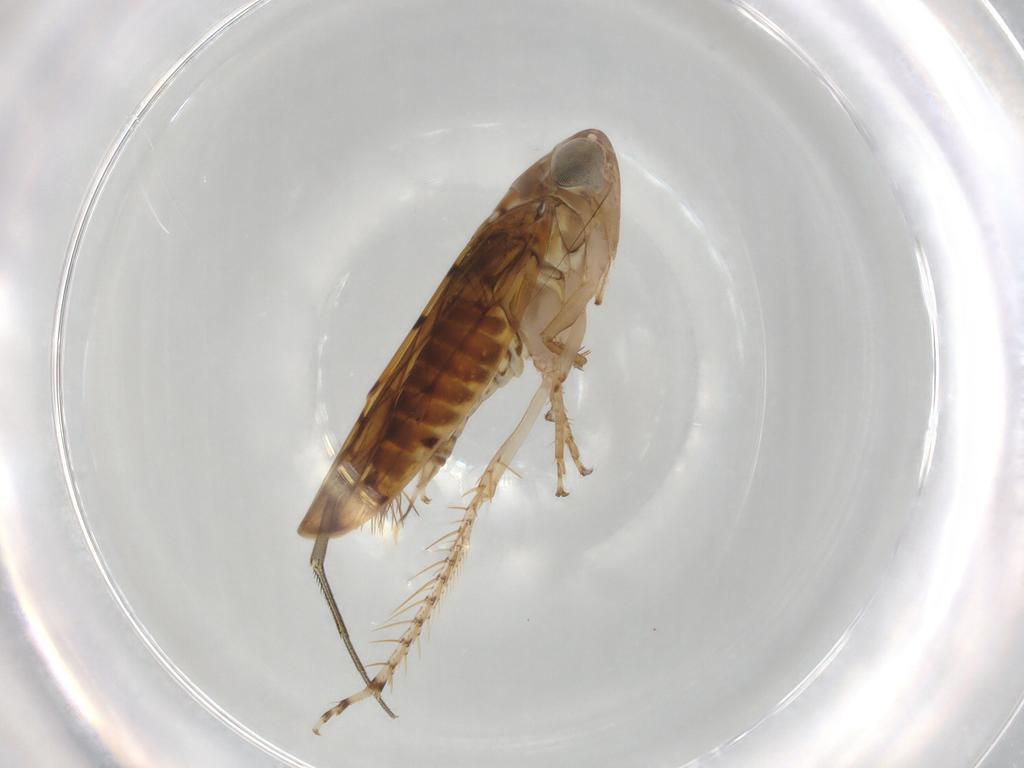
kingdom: Animalia
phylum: Arthropoda
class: Insecta
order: Hemiptera
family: Cicadellidae
